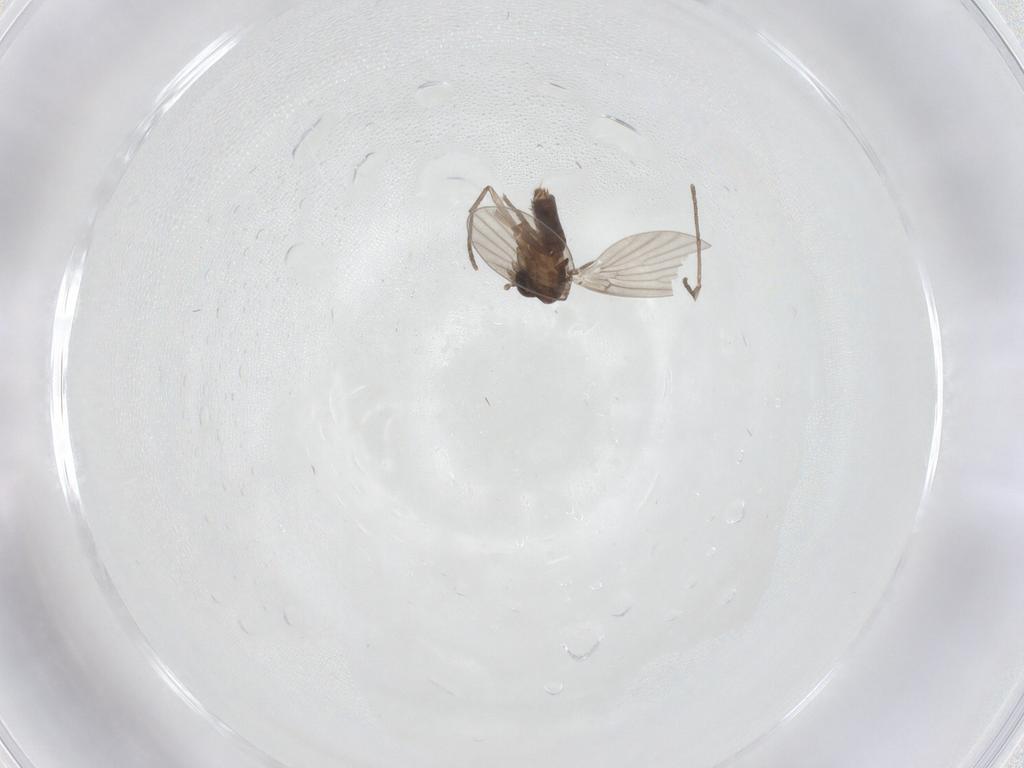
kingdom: Animalia
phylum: Arthropoda
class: Insecta
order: Diptera
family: Psychodidae
